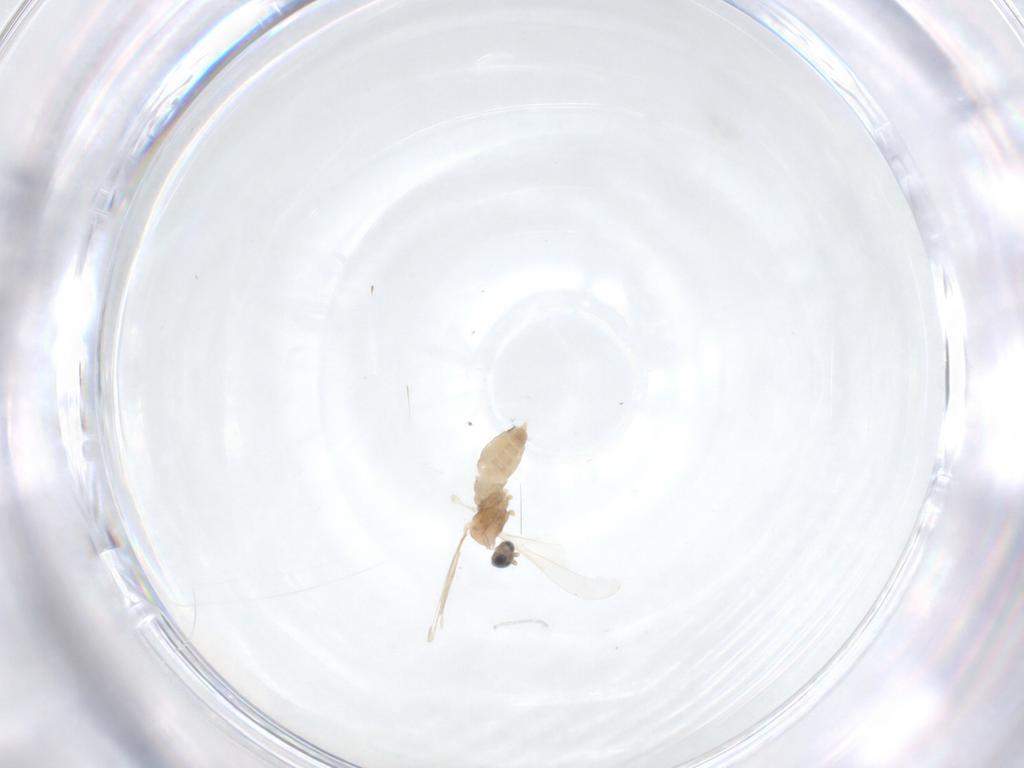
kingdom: Animalia
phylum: Arthropoda
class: Insecta
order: Diptera
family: Cecidomyiidae
